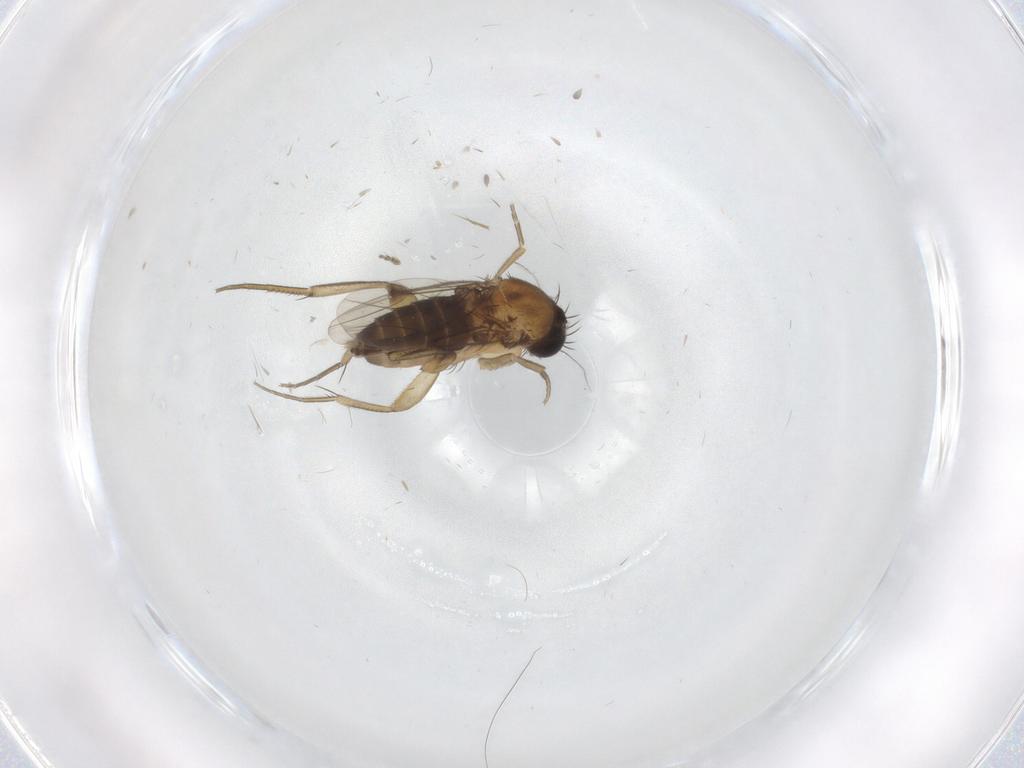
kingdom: Animalia
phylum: Arthropoda
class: Insecta
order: Diptera
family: Phoridae
